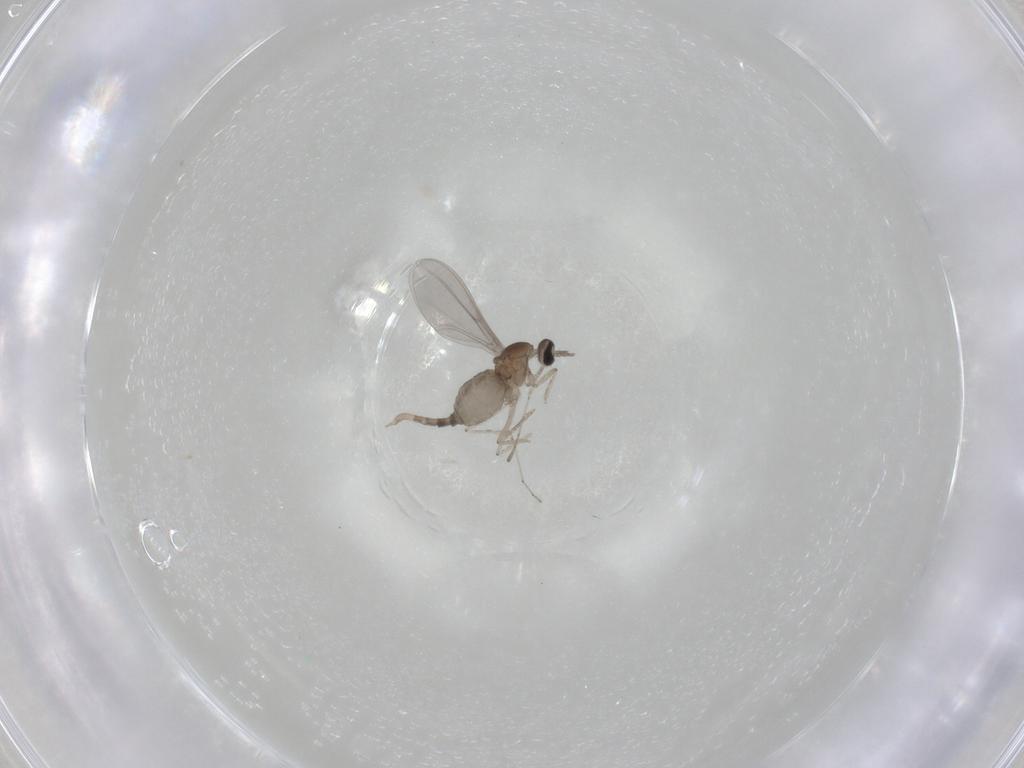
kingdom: Animalia
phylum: Arthropoda
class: Insecta
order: Diptera
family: Cecidomyiidae
